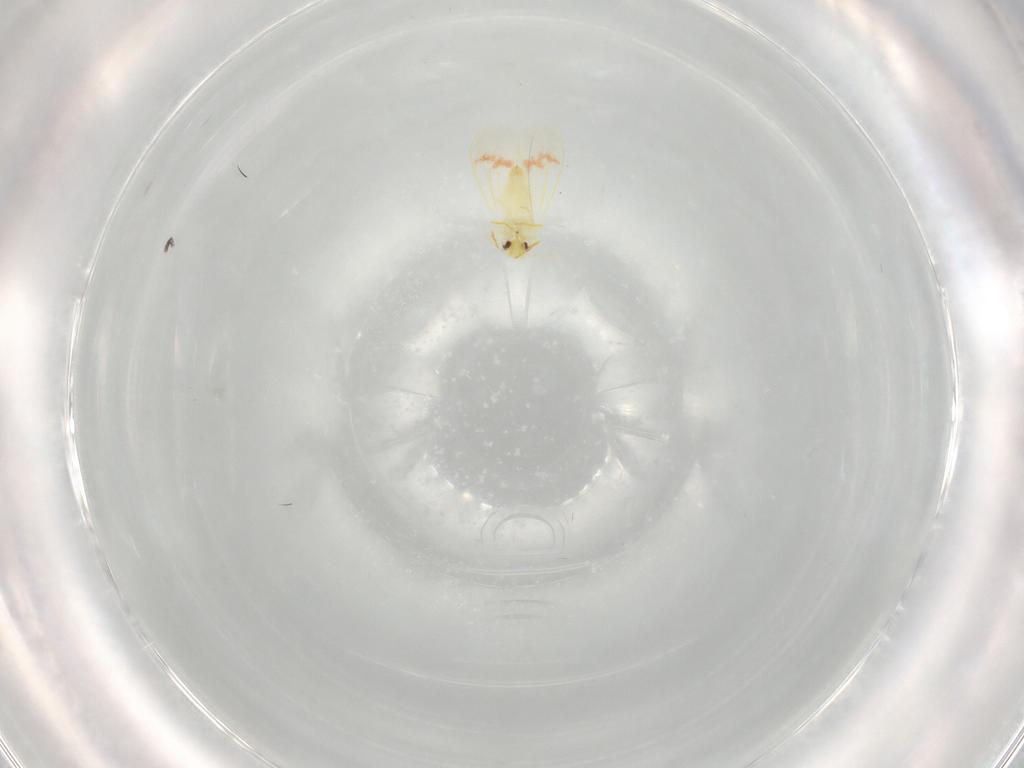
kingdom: Animalia
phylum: Arthropoda
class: Insecta
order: Hemiptera
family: Aleyrodidae
